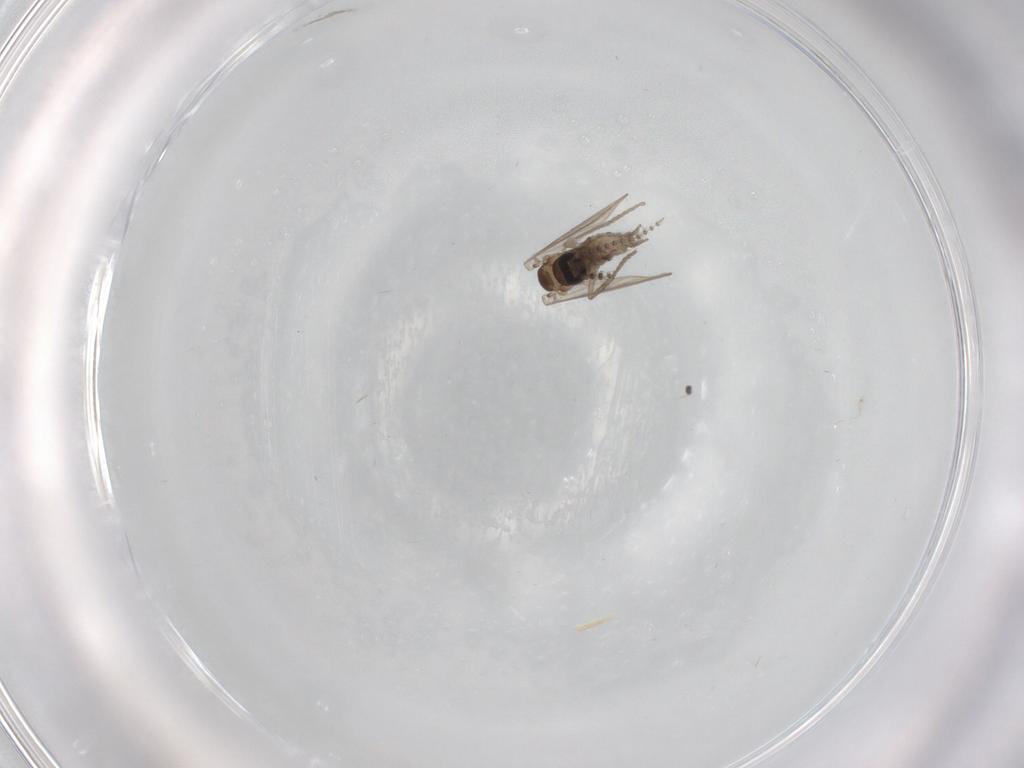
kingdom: Animalia
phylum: Arthropoda
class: Insecta
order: Diptera
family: Psychodidae
